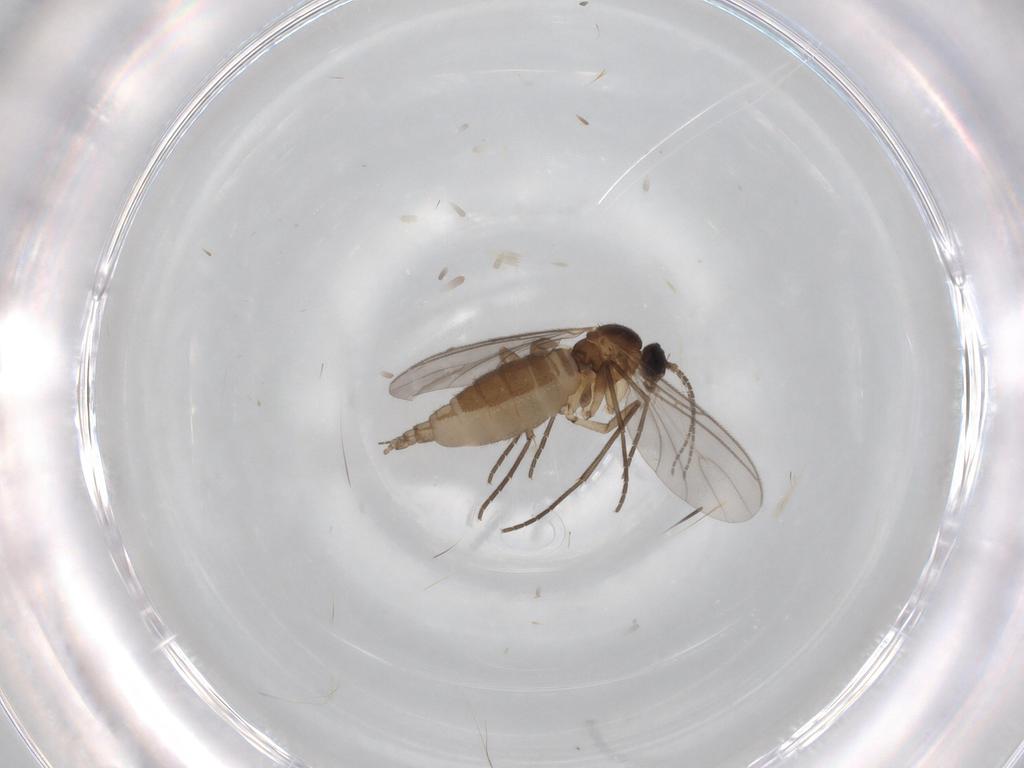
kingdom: Animalia
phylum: Arthropoda
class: Insecta
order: Diptera
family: Sciaridae
